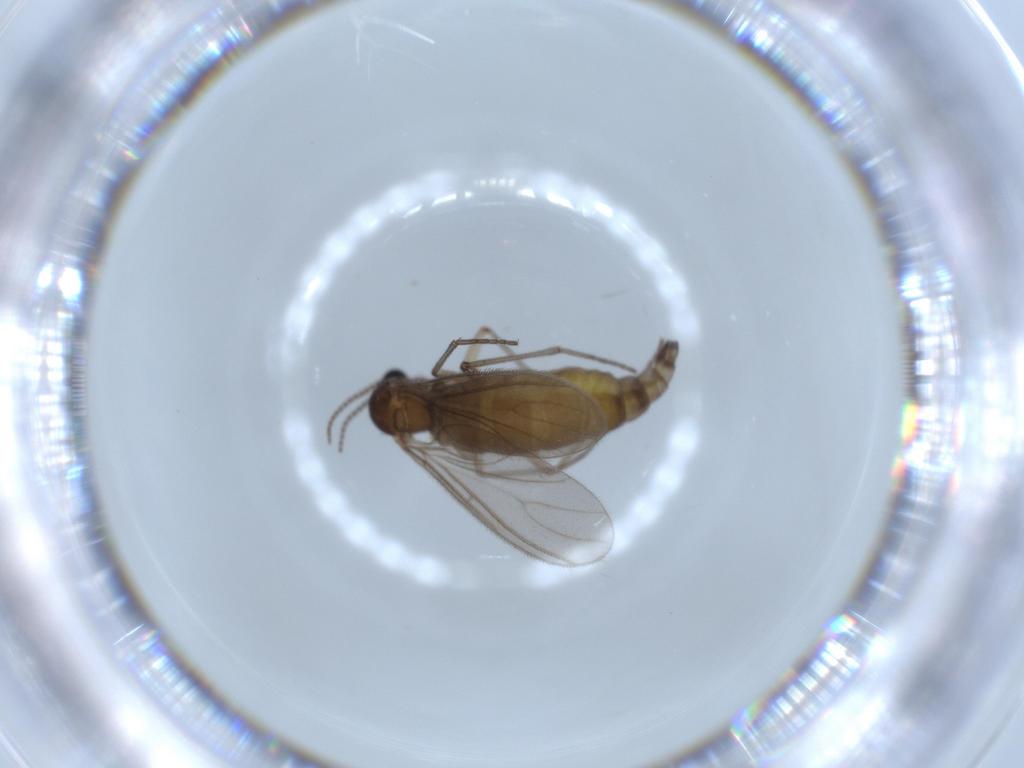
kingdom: Animalia
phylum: Arthropoda
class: Insecta
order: Diptera
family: Sciaridae
